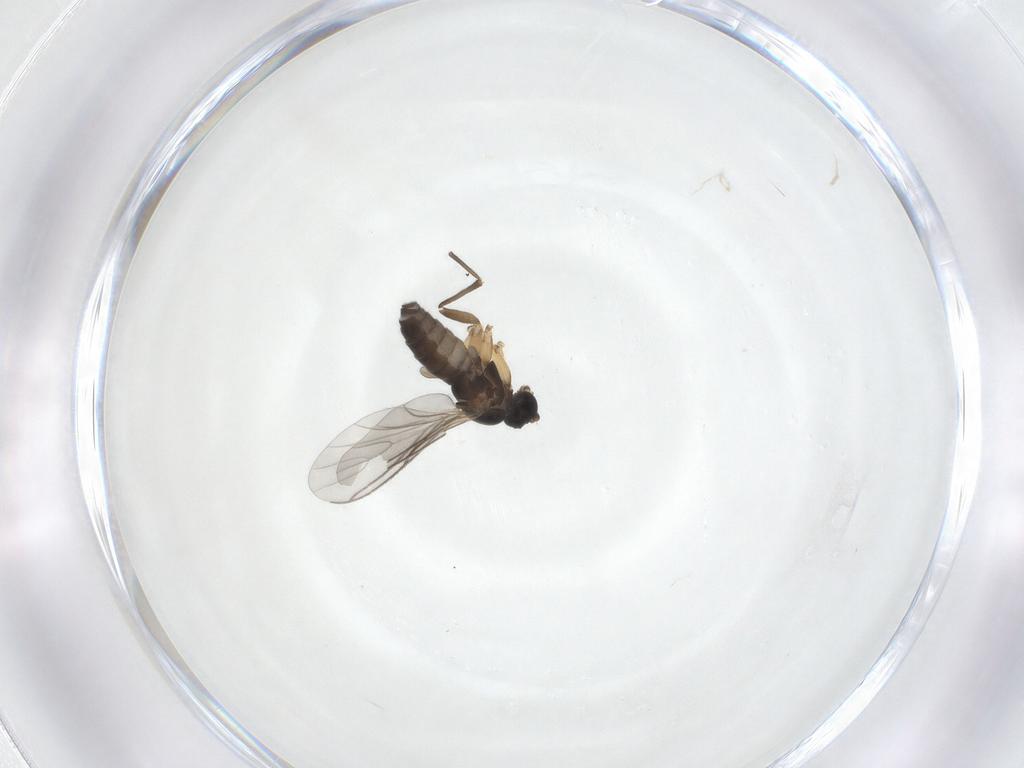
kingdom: Animalia
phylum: Arthropoda
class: Insecta
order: Diptera
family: Sciaridae
